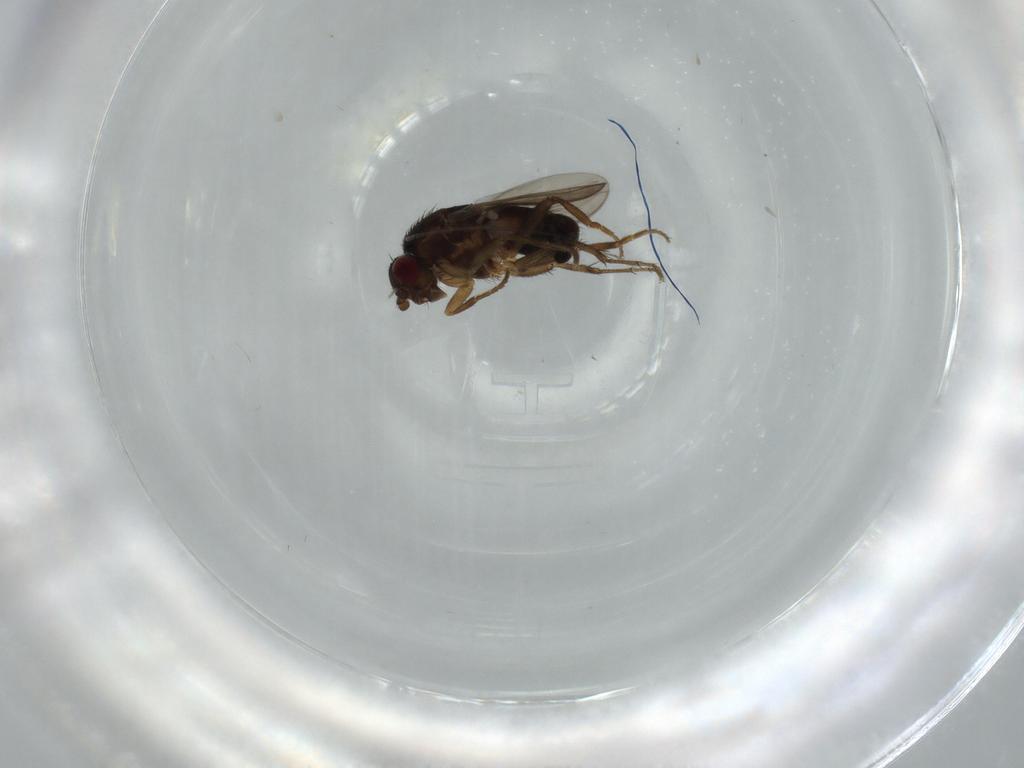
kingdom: Animalia
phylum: Arthropoda
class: Insecta
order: Diptera
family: Sphaeroceridae
